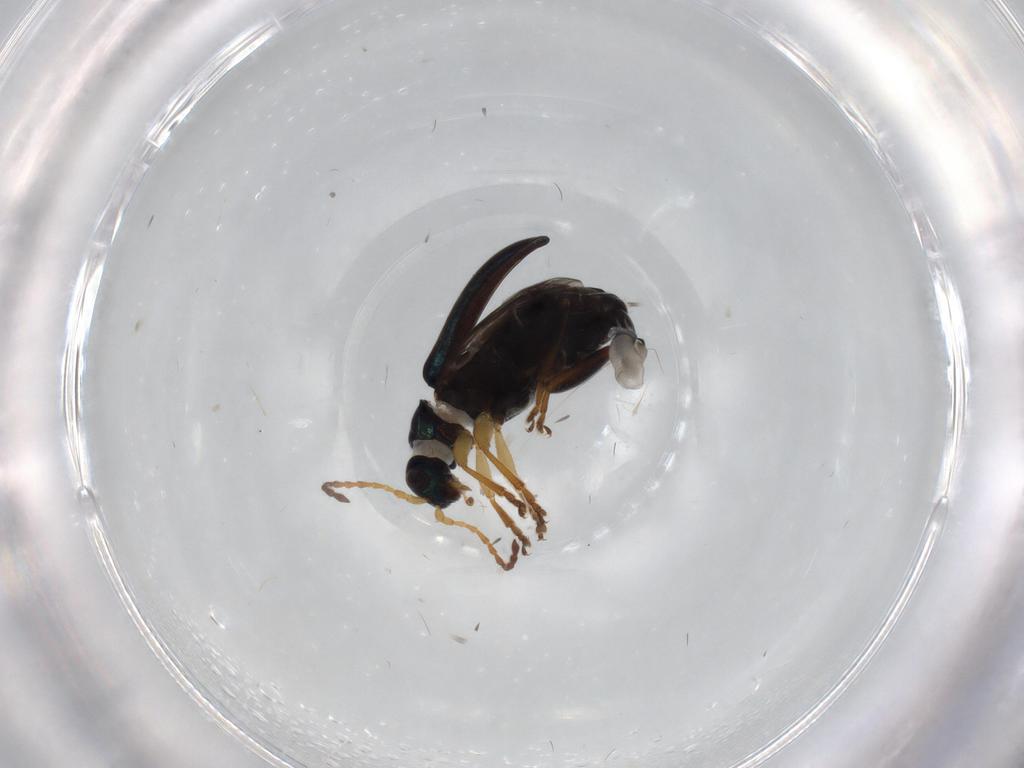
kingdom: Animalia
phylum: Arthropoda
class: Insecta
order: Coleoptera
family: Chrysomelidae
